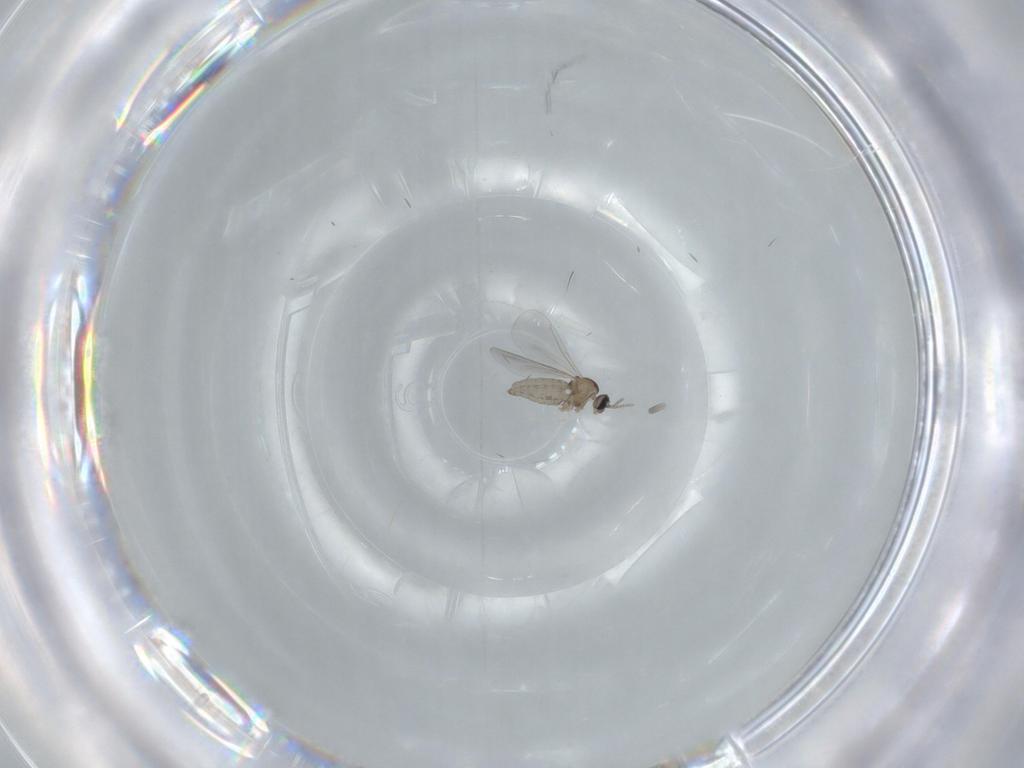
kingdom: Animalia
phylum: Arthropoda
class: Insecta
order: Diptera
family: Cecidomyiidae
